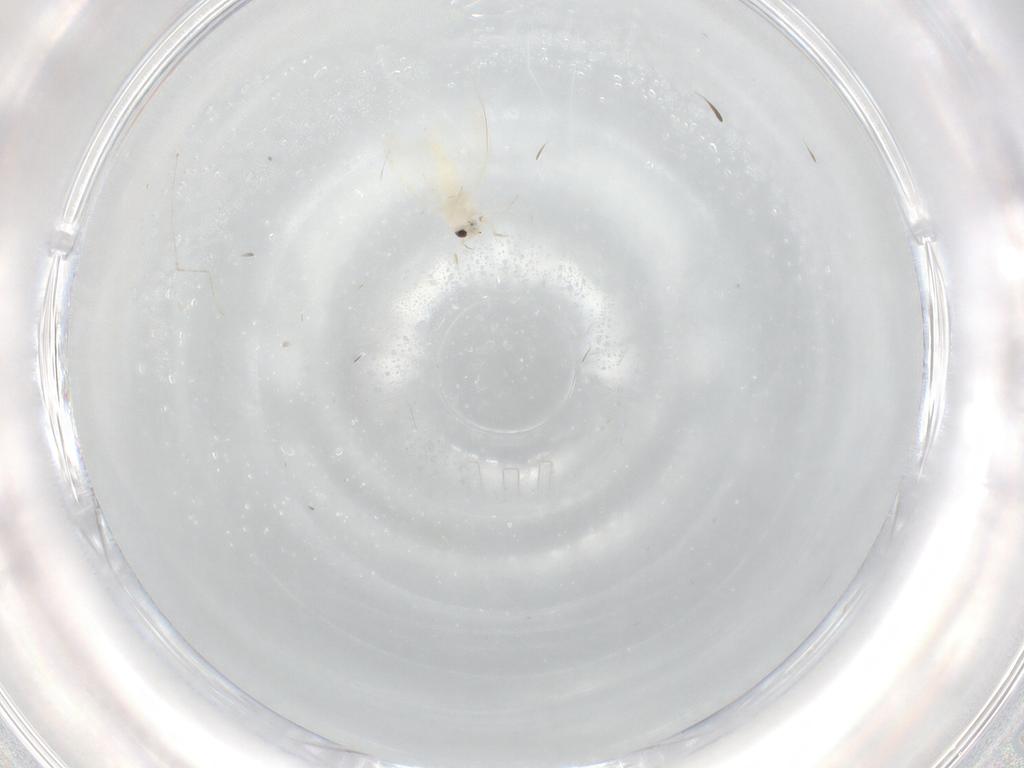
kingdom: Animalia
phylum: Arthropoda
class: Insecta
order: Diptera
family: Cecidomyiidae
